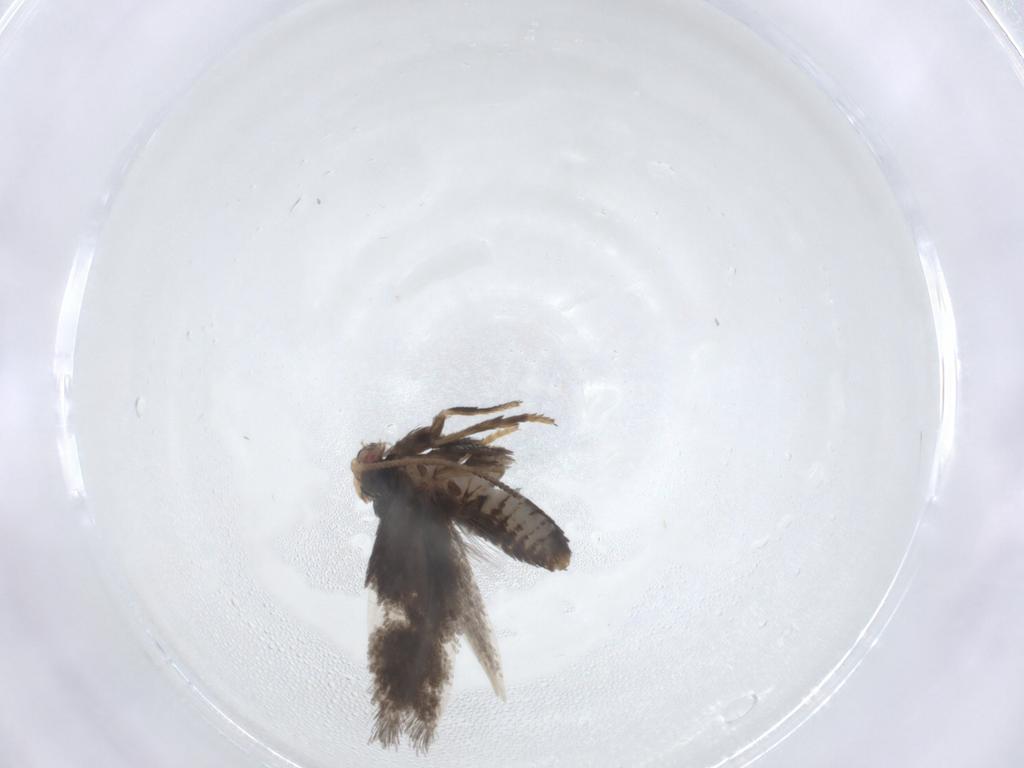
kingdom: Animalia
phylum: Arthropoda
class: Insecta
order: Lepidoptera
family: Nepticulidae
